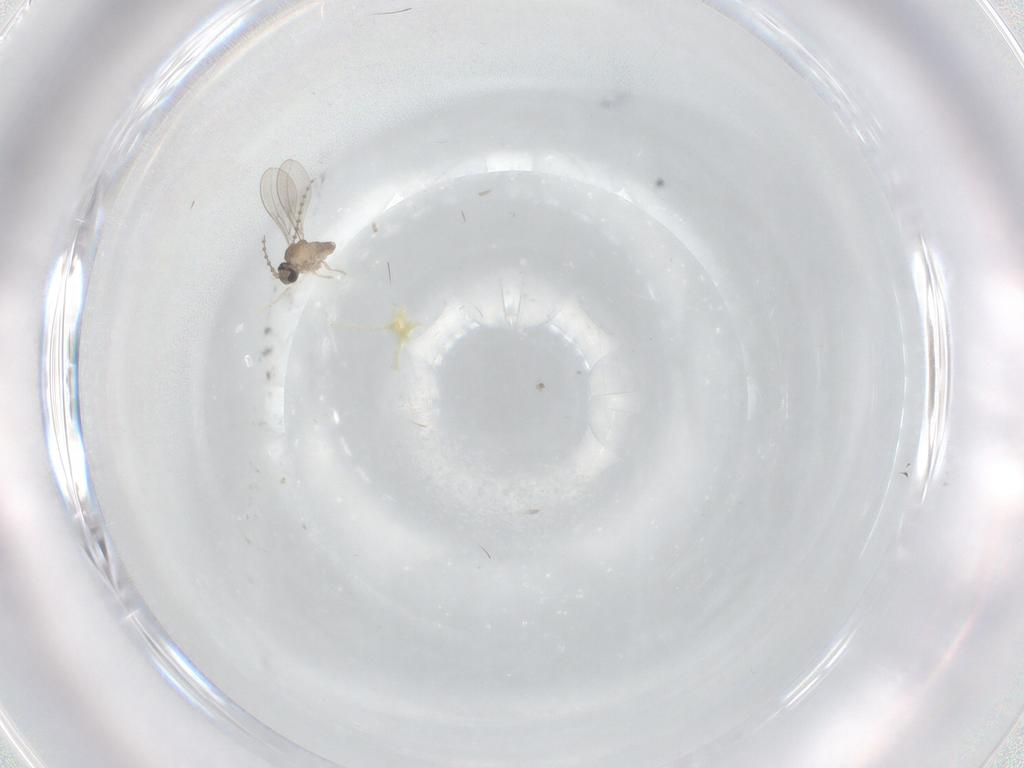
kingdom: Animalia
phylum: Arthropoda
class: Insecta
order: Diptera
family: Cecidomyiidae
